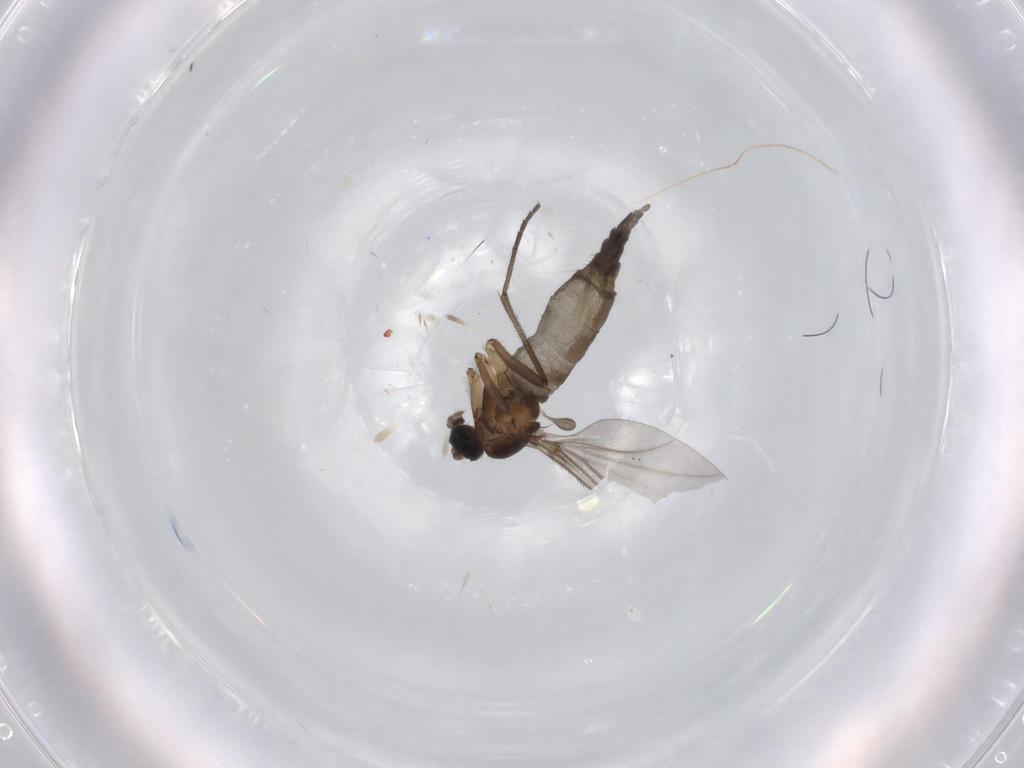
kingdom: Animalia
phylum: Arthropoda
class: Insecta
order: Diptera
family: Sciaridae
